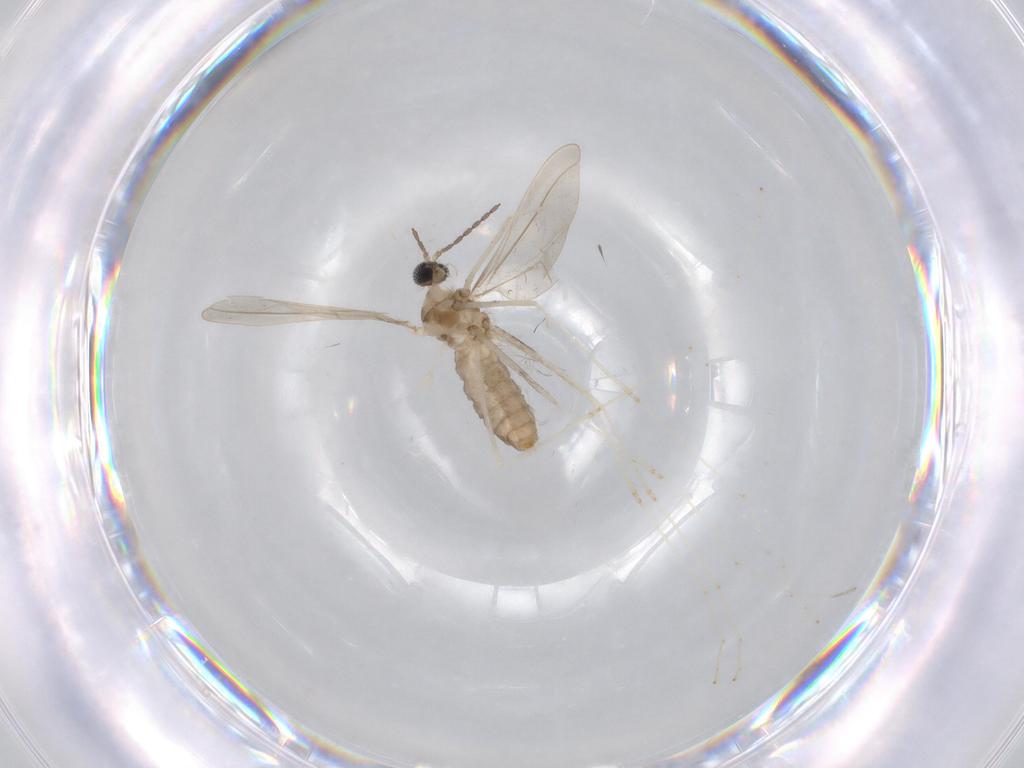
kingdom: Animalia
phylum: Arthropoda
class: Insecta
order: Diptera
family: Cecidomyiidae
